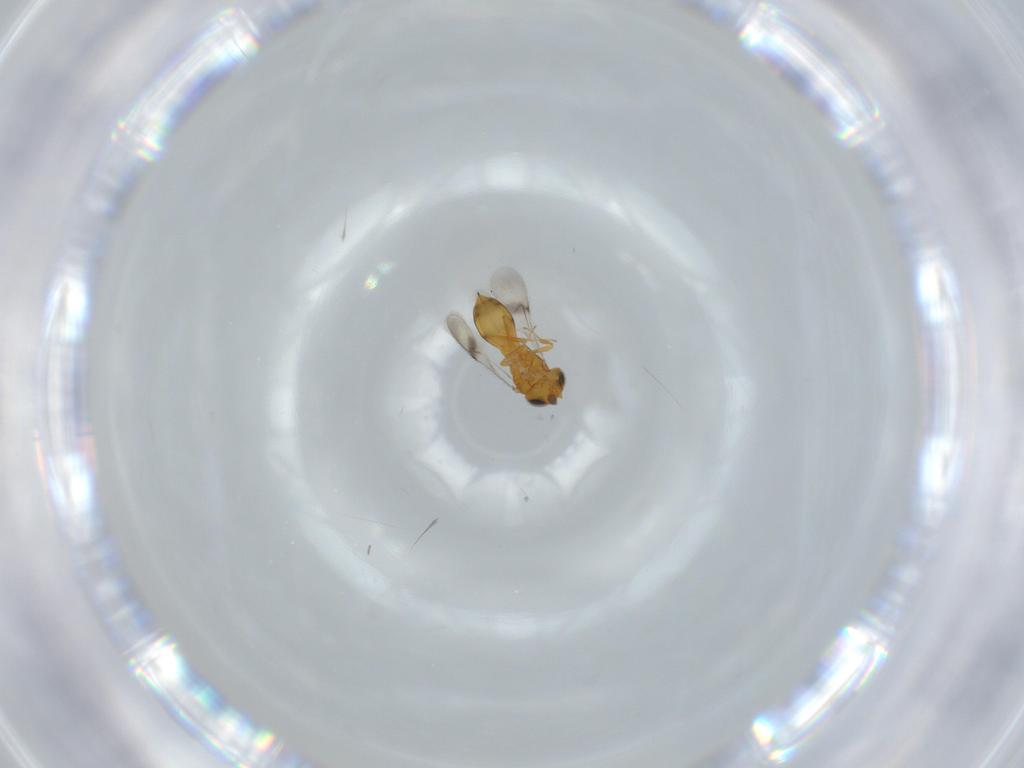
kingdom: Animalia
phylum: Arthropoda
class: Insecta
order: Hymenoptera
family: Scelionidae
